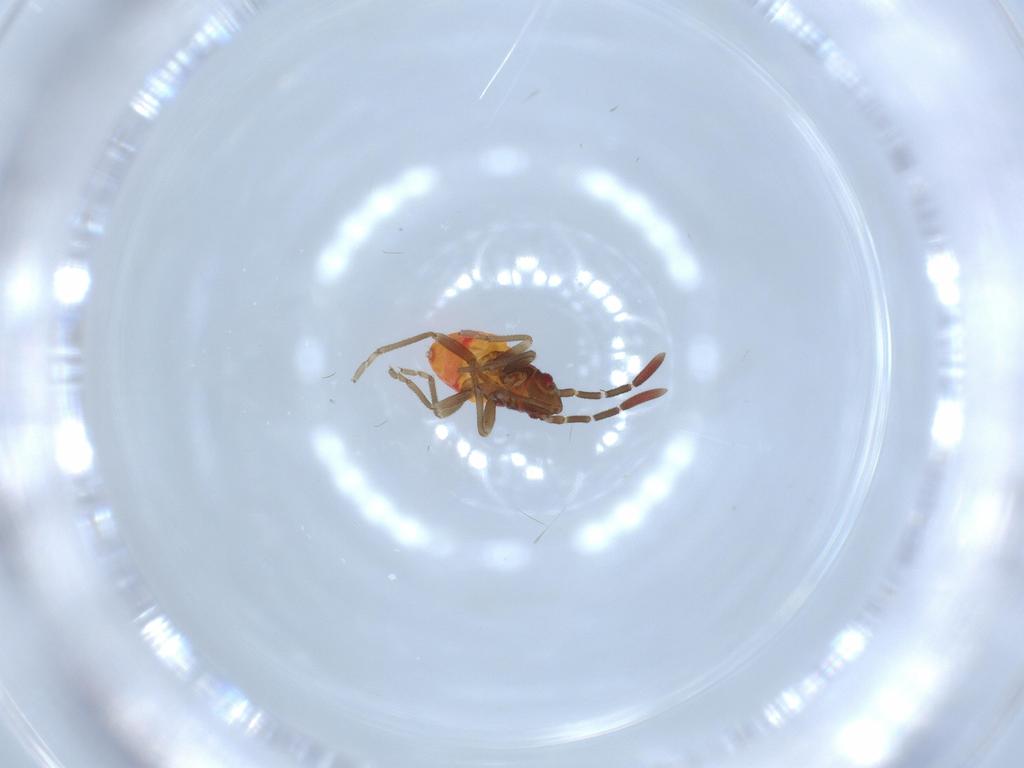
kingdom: Animalia
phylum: Arthropoda
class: Insecta
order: Hemiptera
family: Rhyparochromidae
